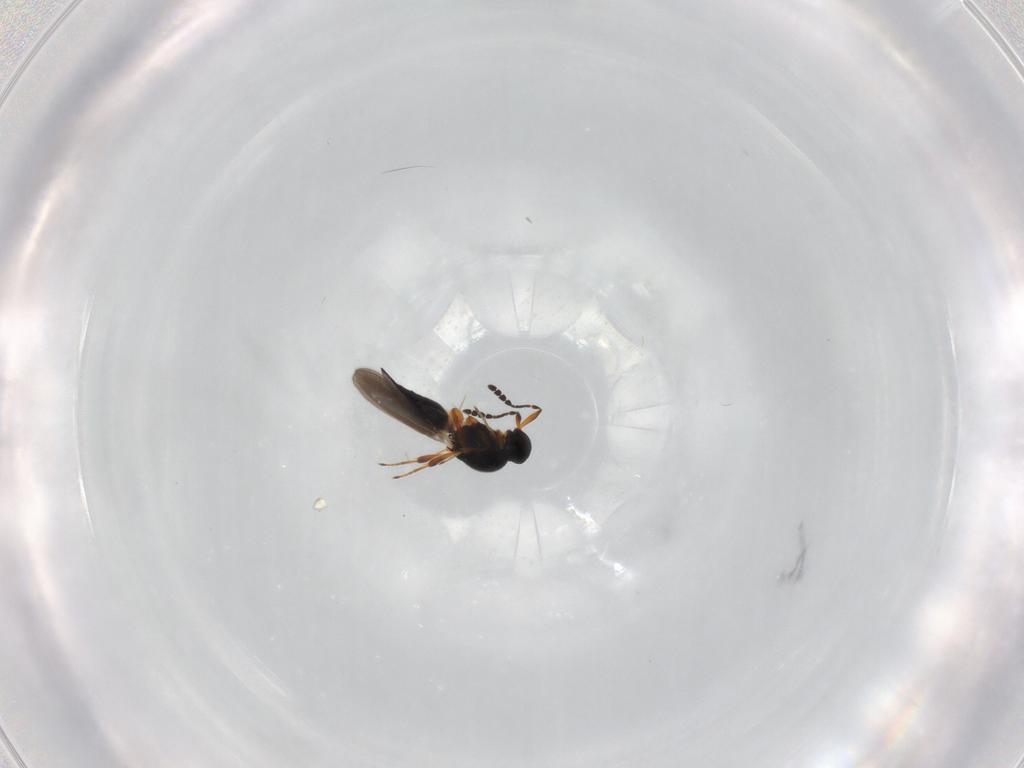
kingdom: Animalia
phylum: Arthropoda
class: Insecta
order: Hymenoptera
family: Platygastridae
